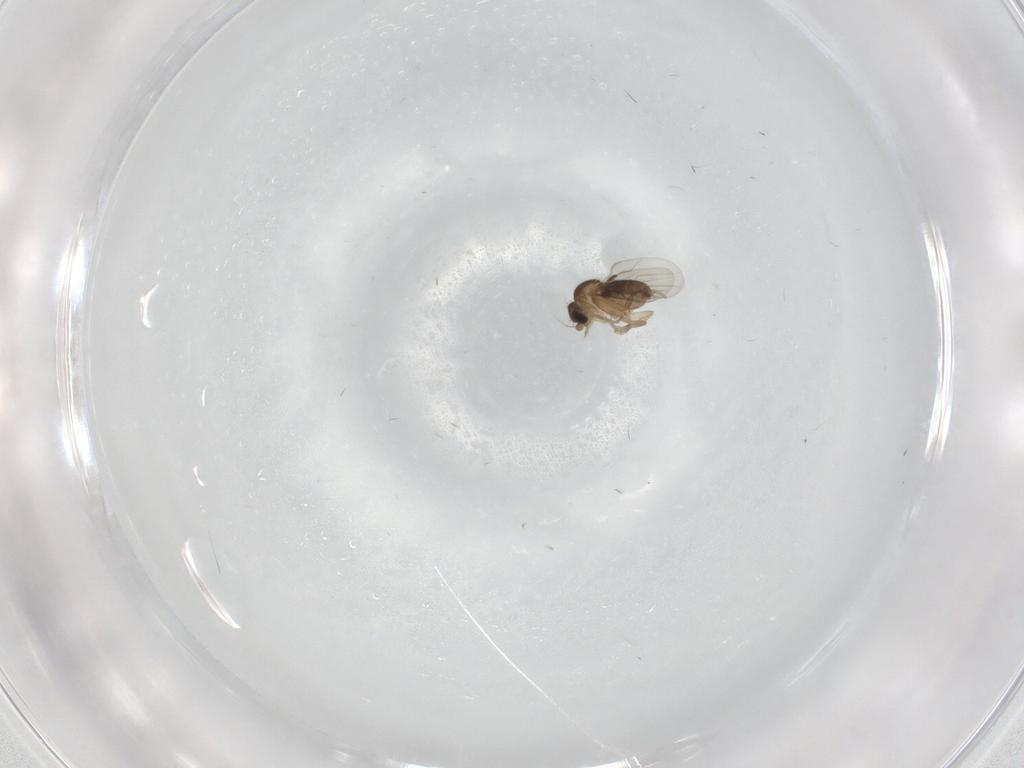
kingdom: Animalia
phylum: Arthropoda
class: Insecta
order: Diptera
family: Phoridae
